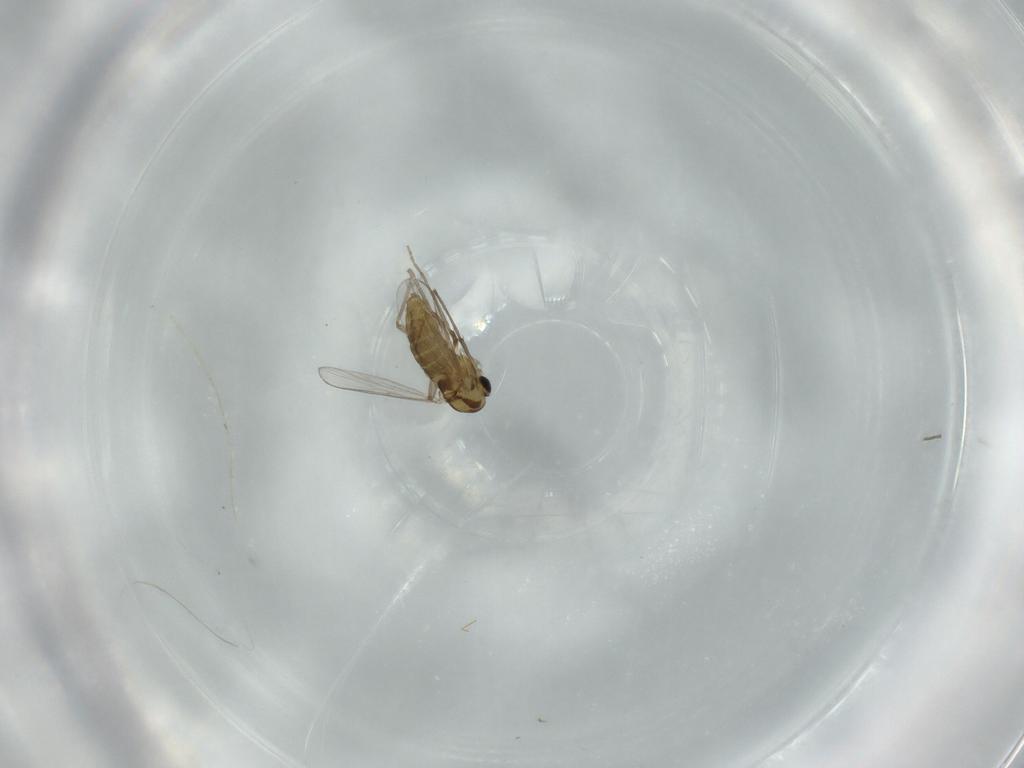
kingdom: Animalia
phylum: Arthropoda
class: Insecta
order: Diptera
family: Chironomidae
